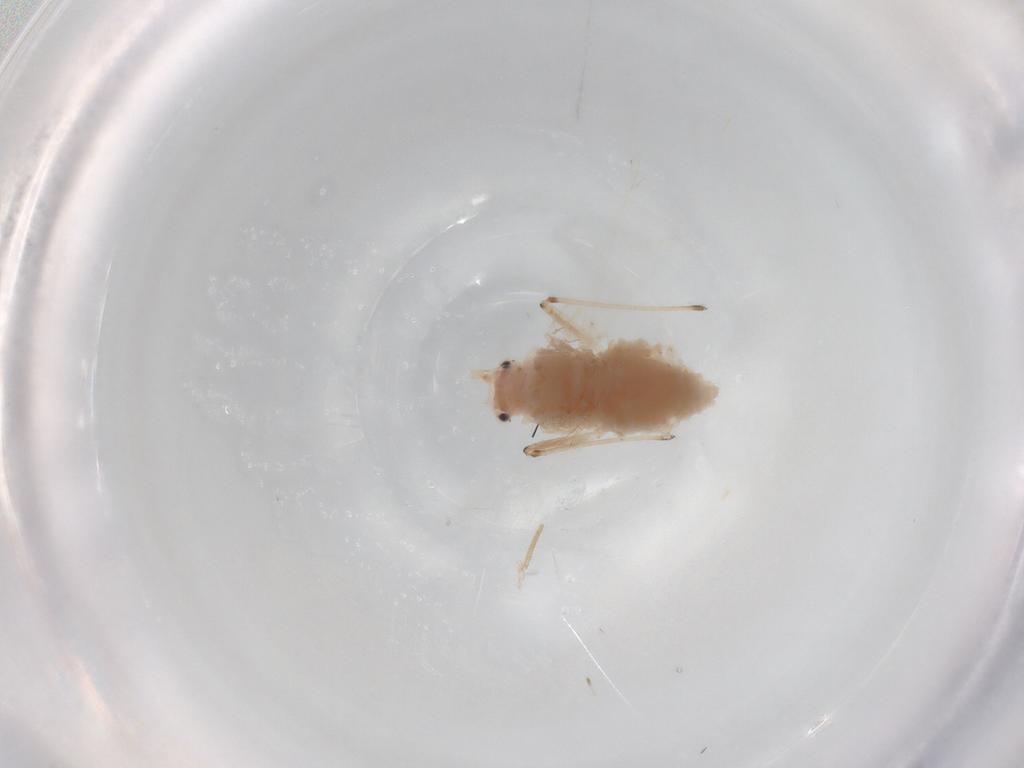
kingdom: Animalia
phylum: Arthropoda
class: Insecta
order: Hemiptera
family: Aphididae
